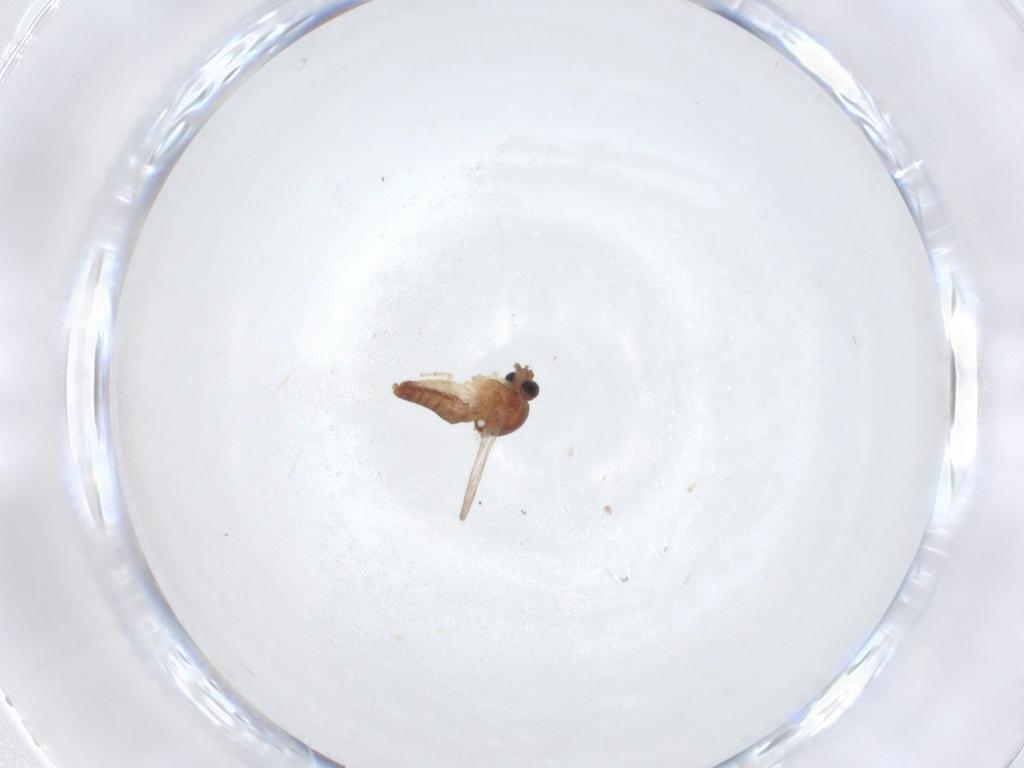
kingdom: Animalia
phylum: Arthropoda
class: Insecta
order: Diptera
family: Ceratopogonidae
